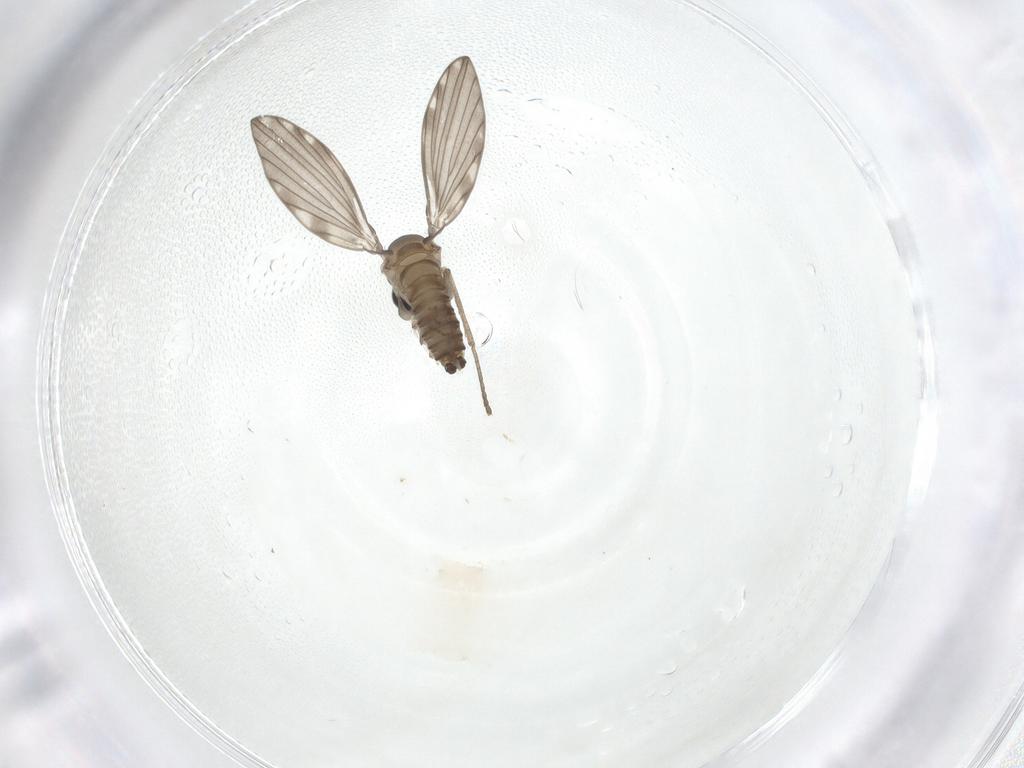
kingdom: Animalia
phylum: Arthropoda
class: Insecta
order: Diptera
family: Psychodidae
